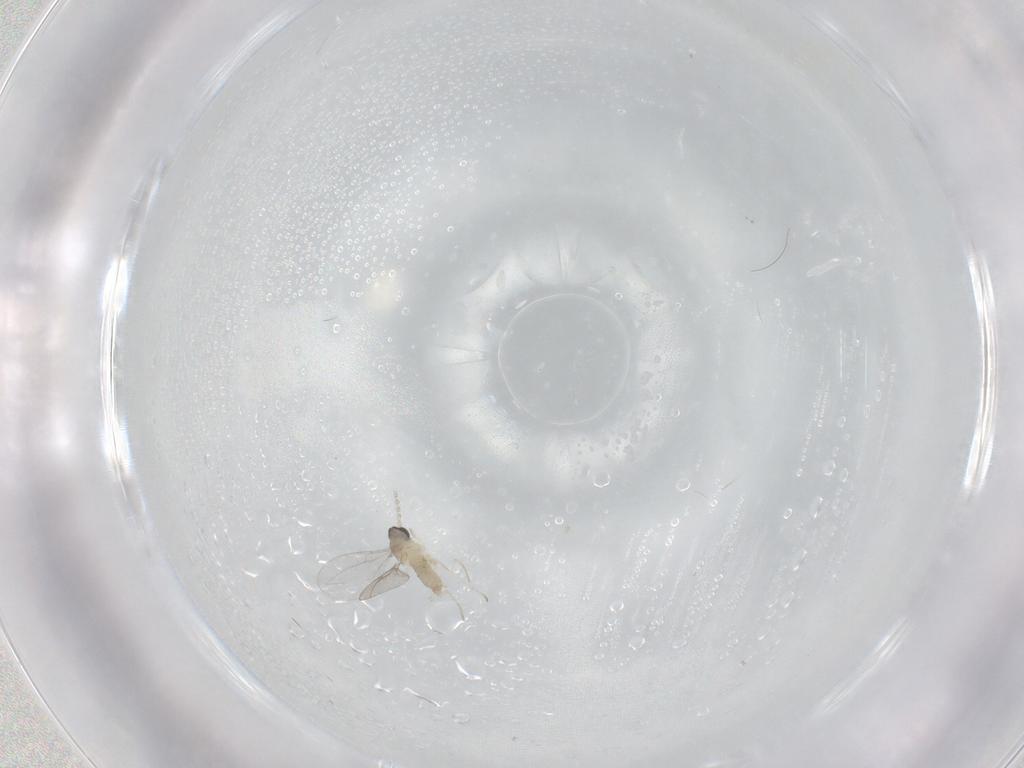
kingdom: Animalia
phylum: Arthropoda
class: Insecta
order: Diptera
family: Cecidomyiidae
